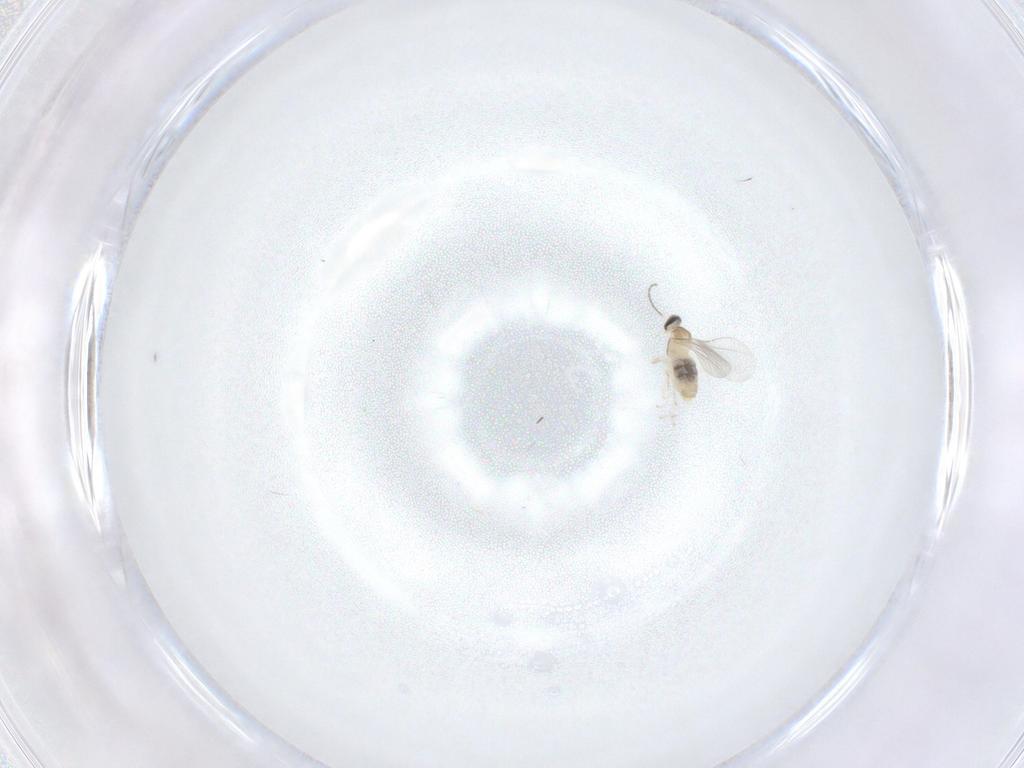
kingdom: Animalia
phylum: Arthropoda
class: Insecta
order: Diptera
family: Cecidomyiidae
